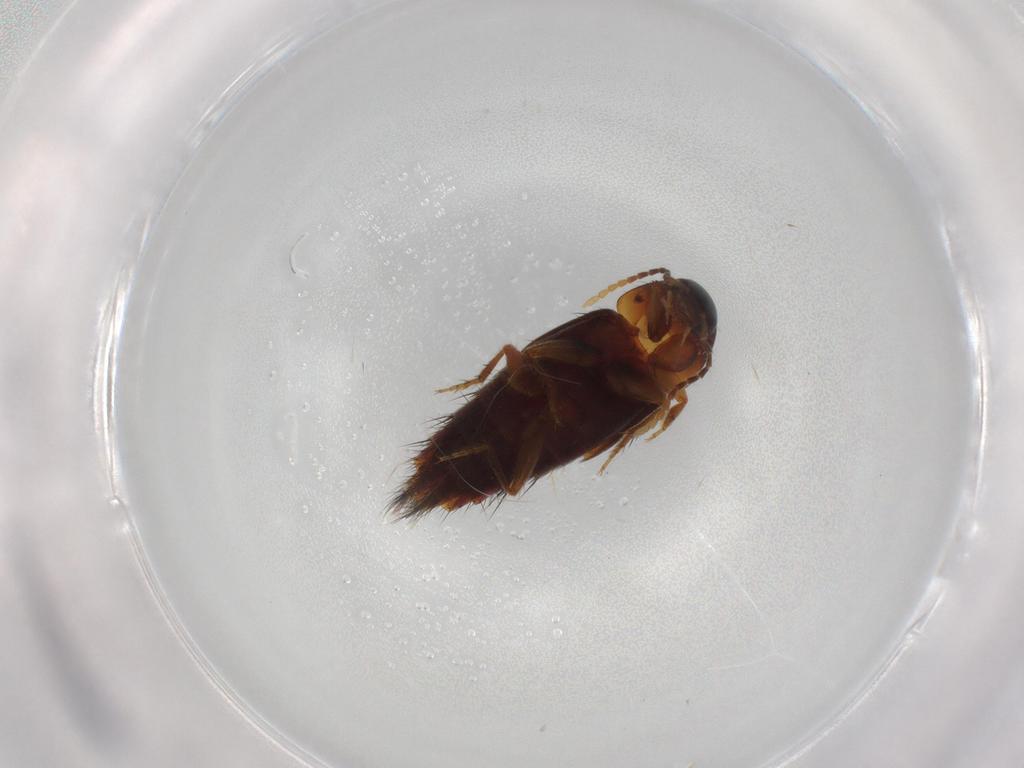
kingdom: Animalia
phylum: Arthropoda
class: Insecta
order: Coleoptera
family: Staphylinidae
